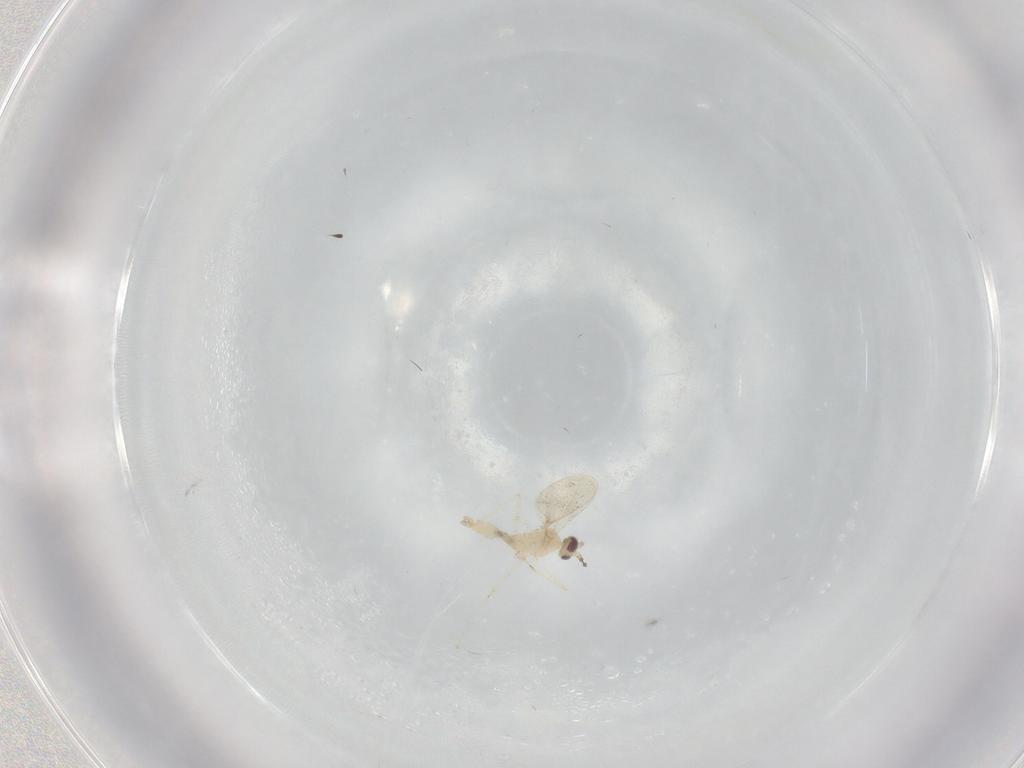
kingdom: Animalia
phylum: Arthropoda
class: Insecta
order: Diptera
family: Cecidomyiidae
